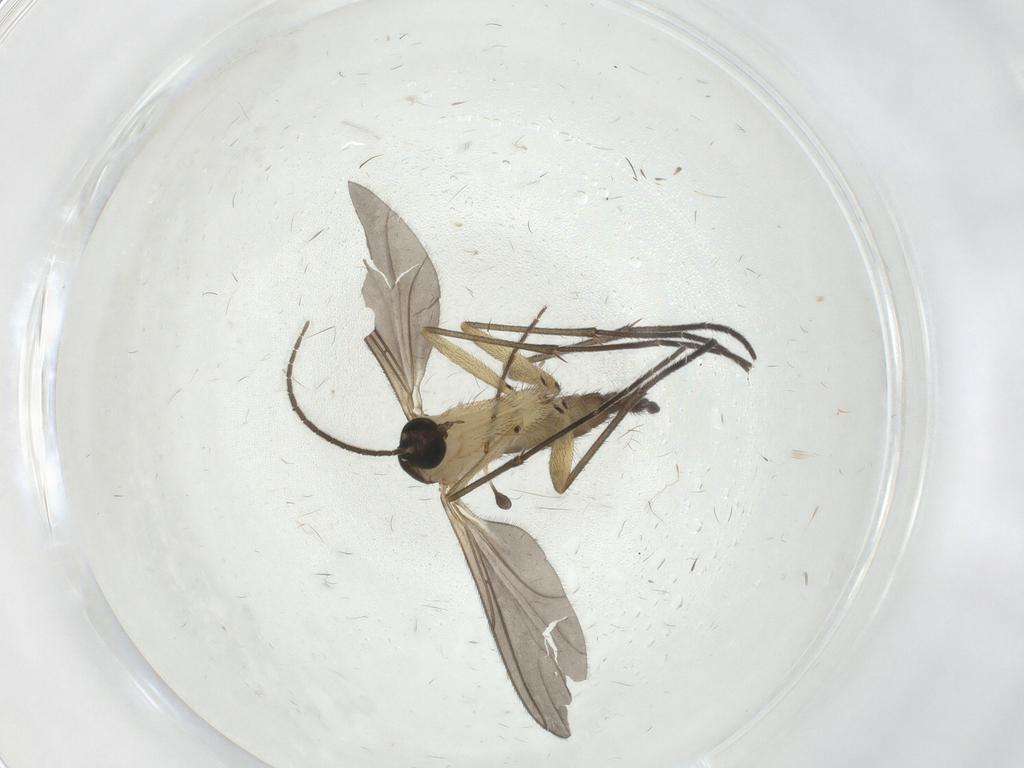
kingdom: Animalia
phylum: Arthropoda
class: Insecta
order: Diptera
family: Sciaridae
